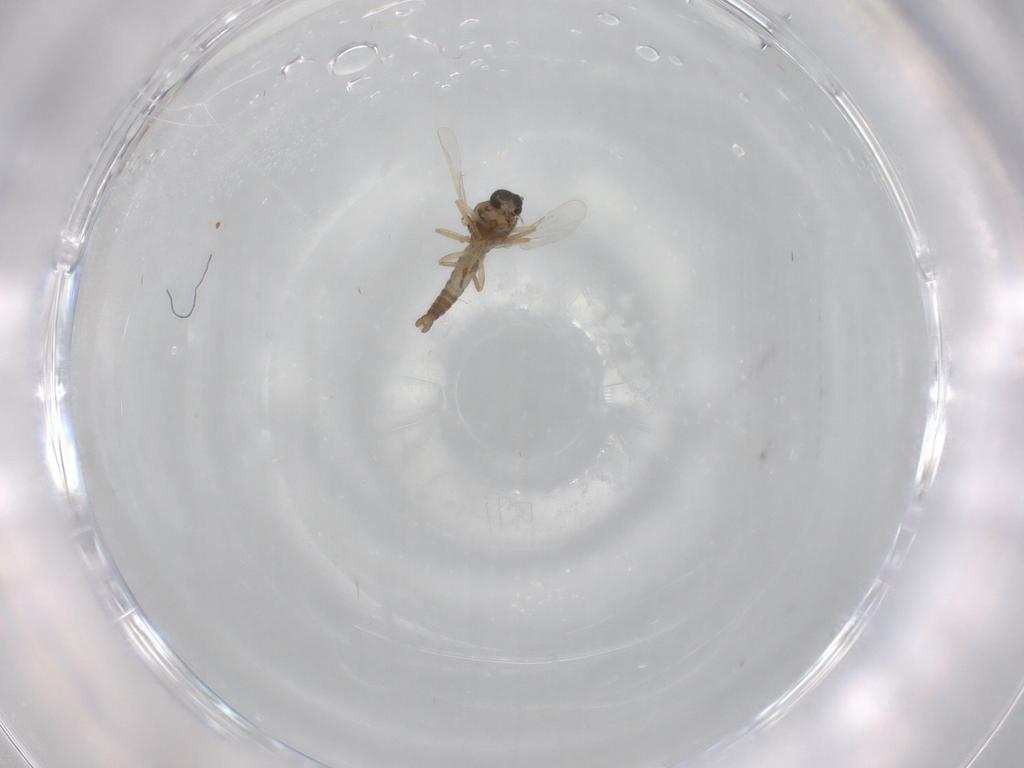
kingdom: Animalia
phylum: Arthropoda
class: Insecta
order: Diptera
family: Ceratopogonidae
